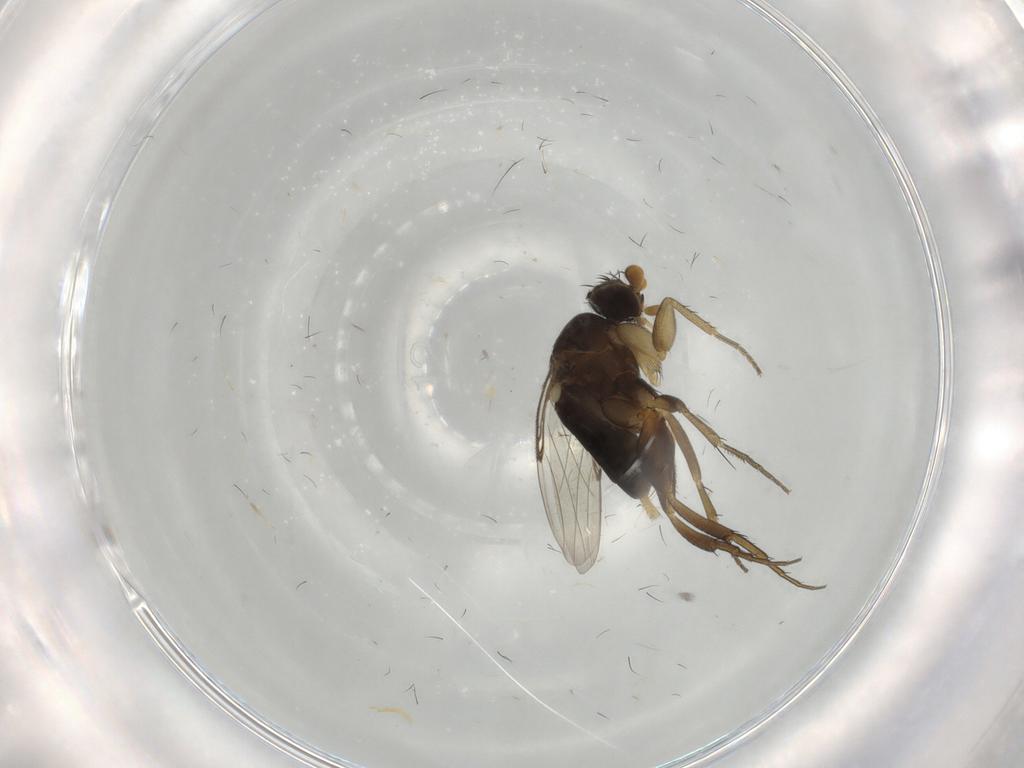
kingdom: Animalia
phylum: Arthropoda
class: Insecta
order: Diptera
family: Phoridae
